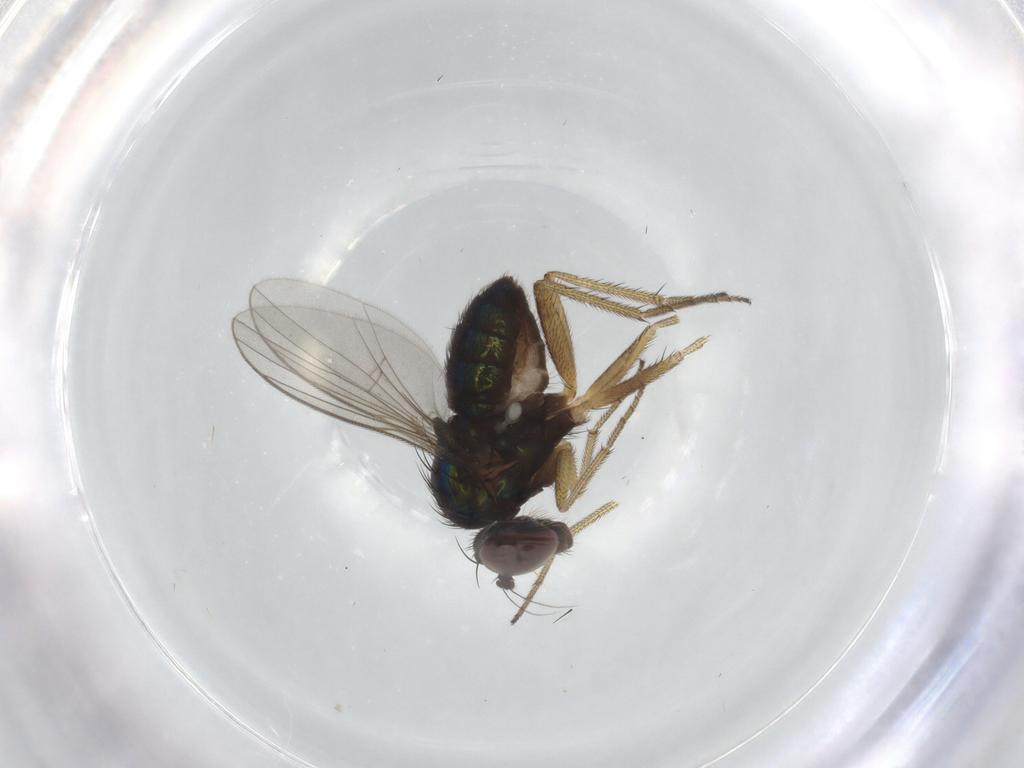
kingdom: Animalia
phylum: Arthropoda
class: Insecta
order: Diptera
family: Dolichopodidae
